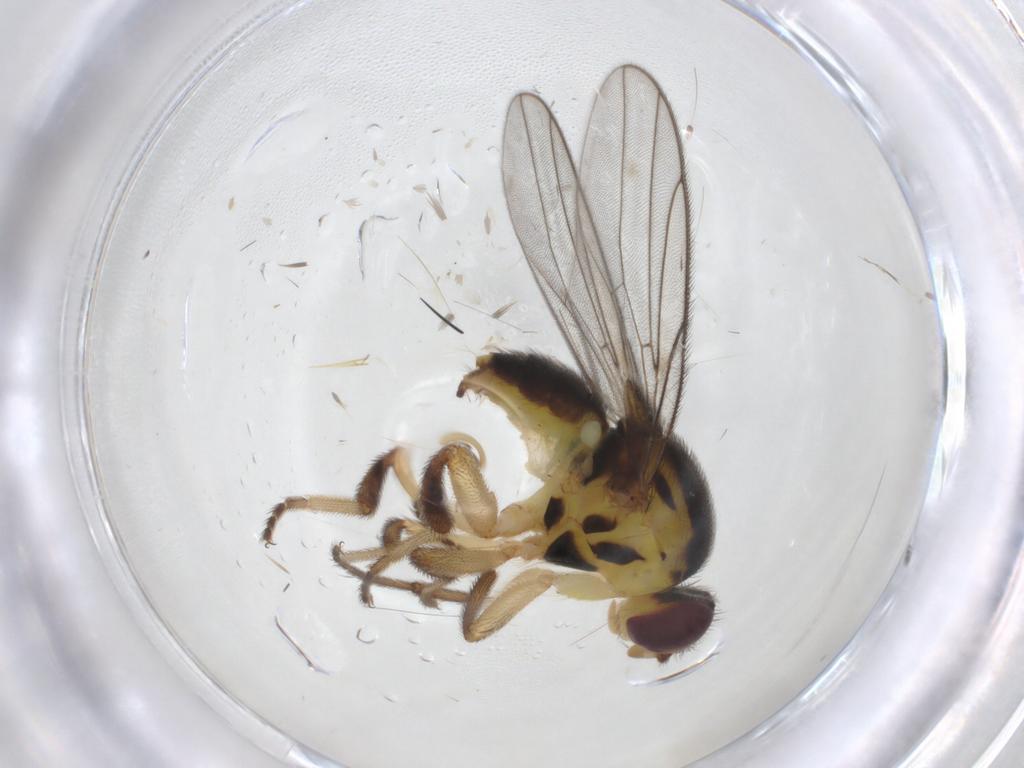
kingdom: Animalia
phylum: Arthropoda
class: Insecta
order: Diptera
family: Chloropidae
